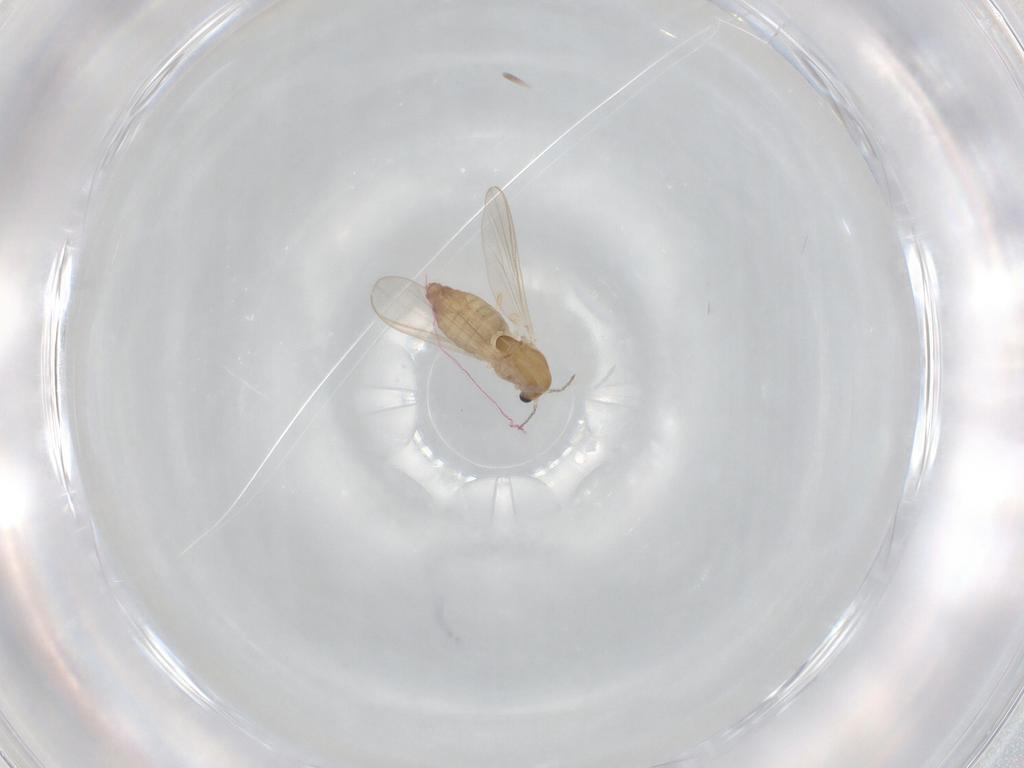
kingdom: Animalia
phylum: Arthropoda
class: Insecta
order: Diptera
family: Chironomidae
